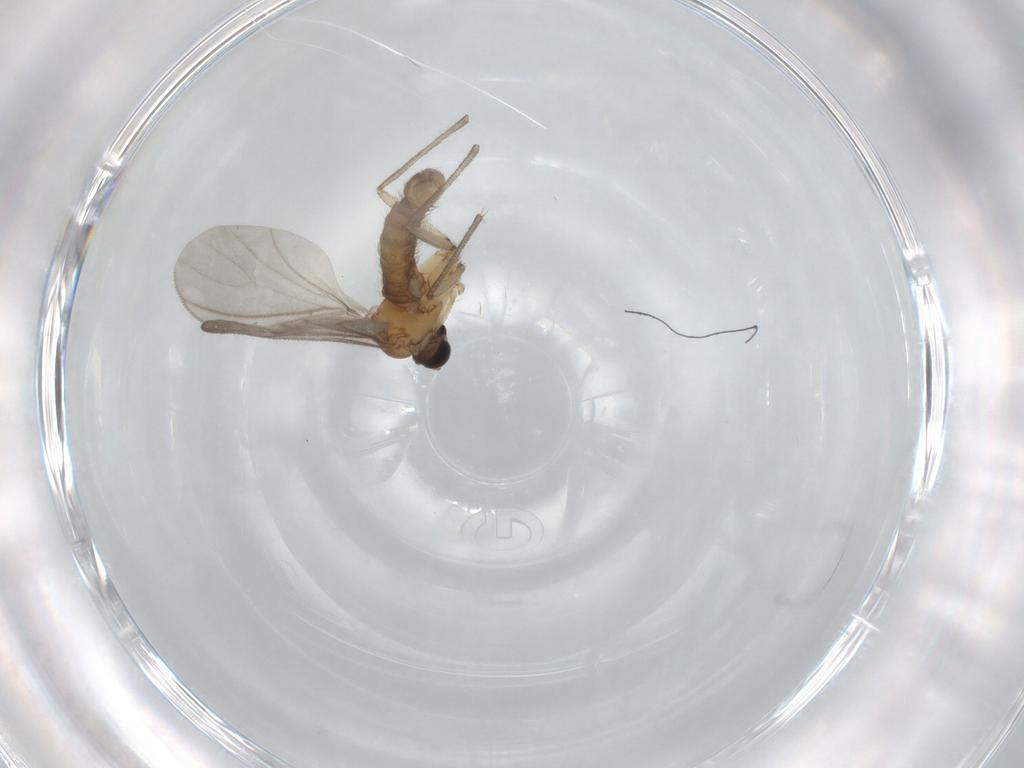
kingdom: Animalia
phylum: Arthropoda
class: Insecta
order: Diptera
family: Sciaridae
